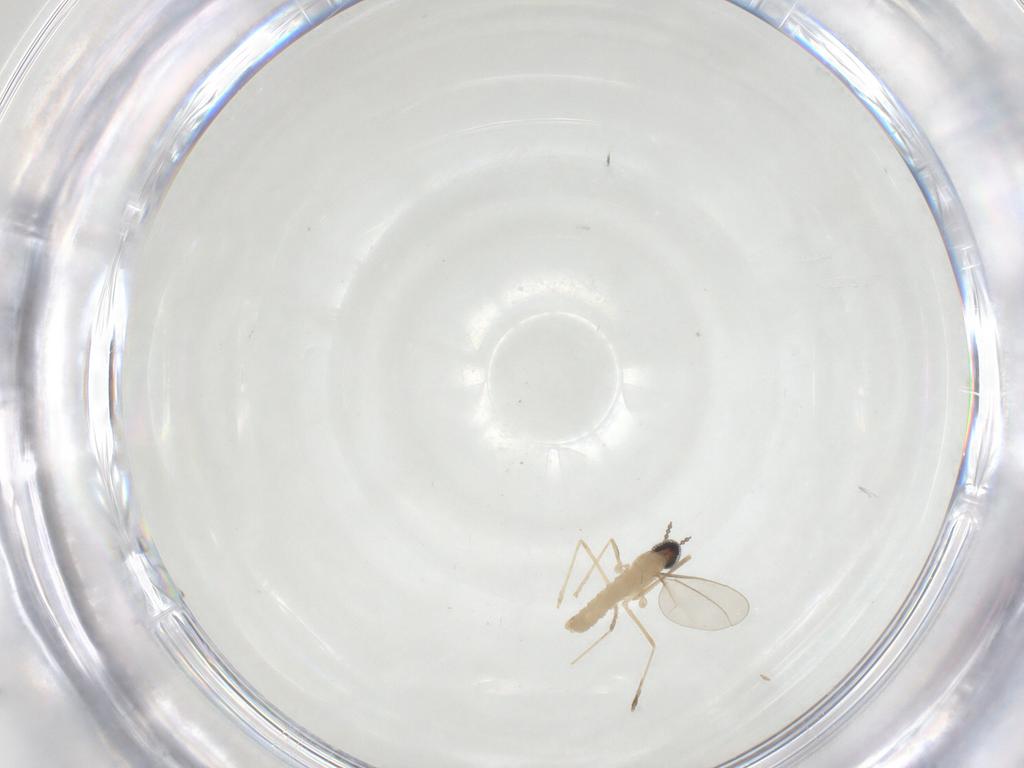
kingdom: Animalia
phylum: Arthropoda
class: Insecta
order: Diptera
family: Cecidomyiidae
